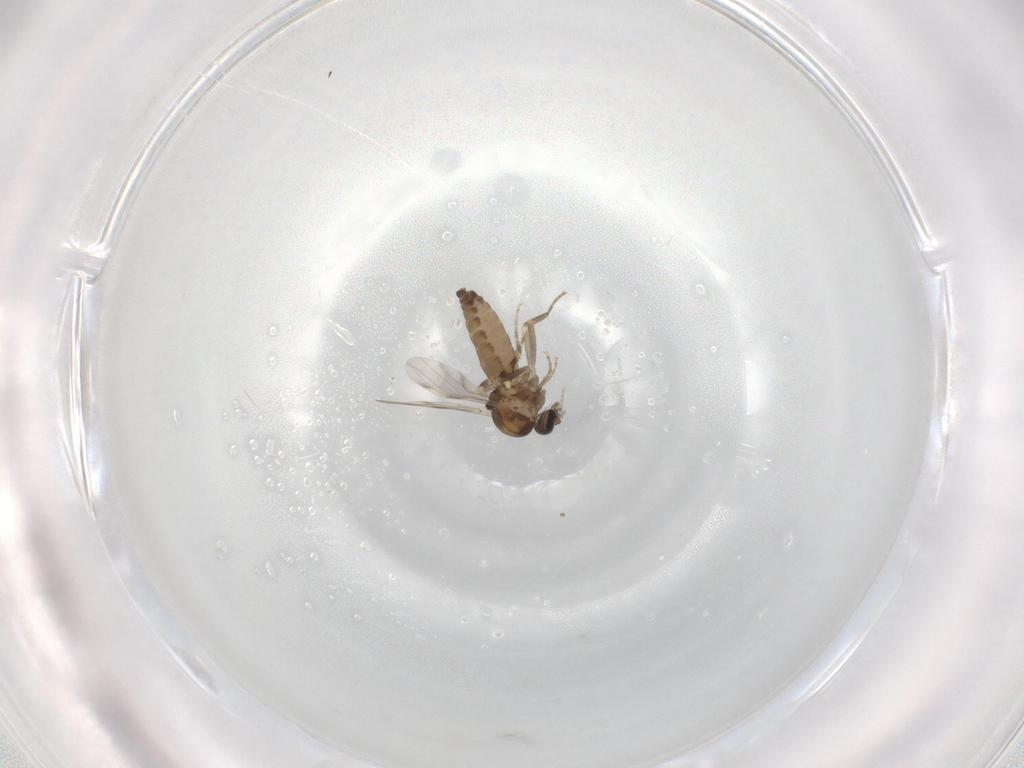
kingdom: Animalia
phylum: Arthropoda
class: Insecta
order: Diptera
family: Ceratopogonidae
